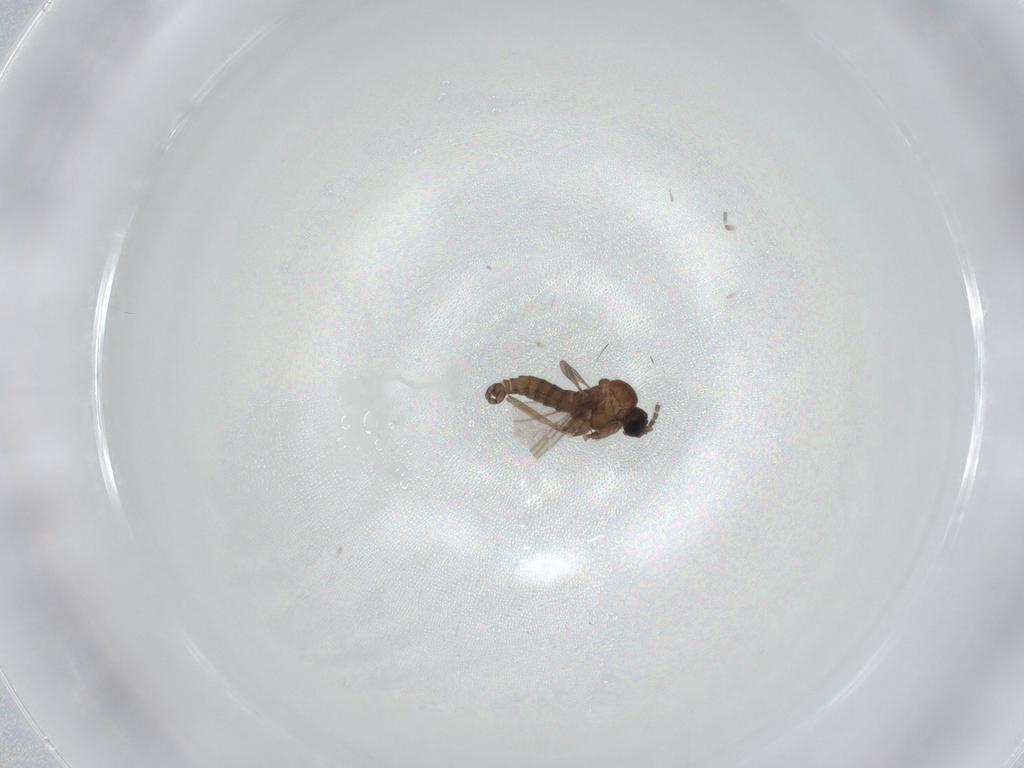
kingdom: Animalia
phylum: Arthropoda
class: Insecta
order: Diptera
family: Sciaridae
